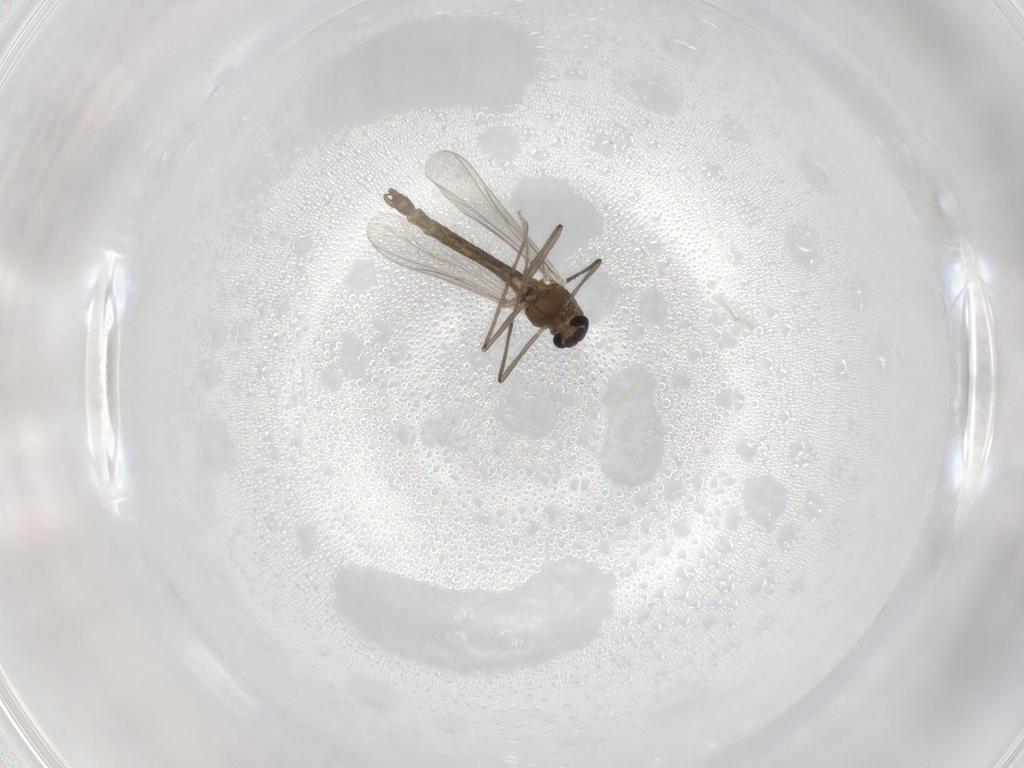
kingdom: Animalia
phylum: Arthropoda
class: Insecta
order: Diptera
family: Chironomidae
